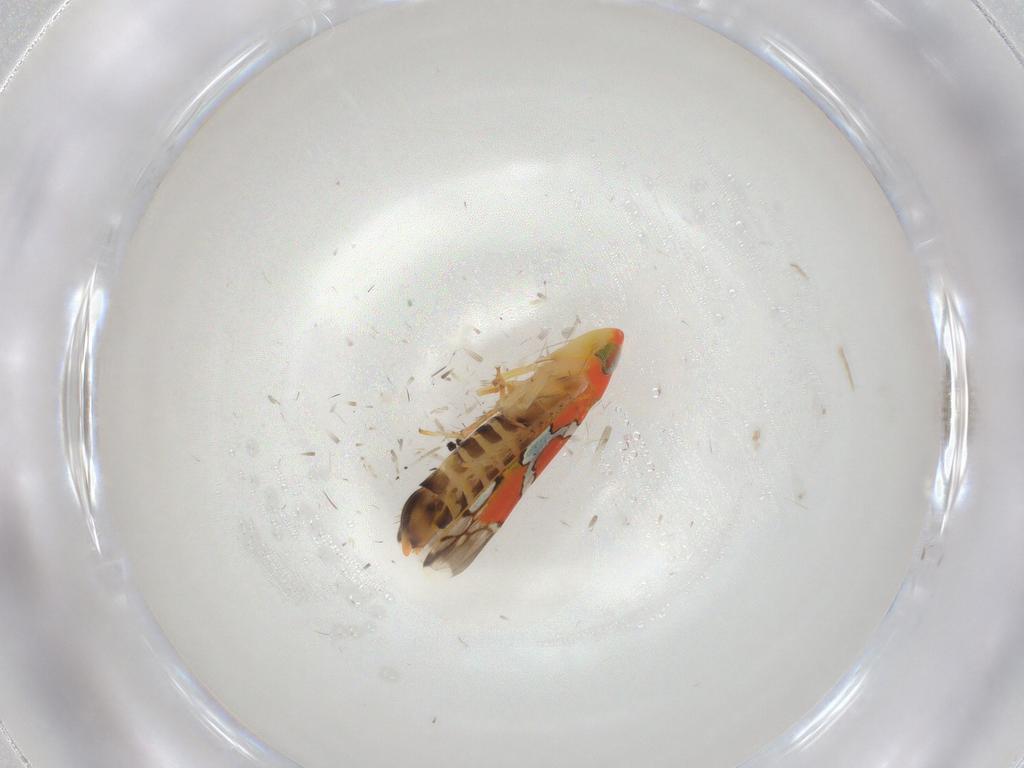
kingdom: Animalia
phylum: Arthropoda
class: Insecta
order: Hemiptera
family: Cicadellidae
